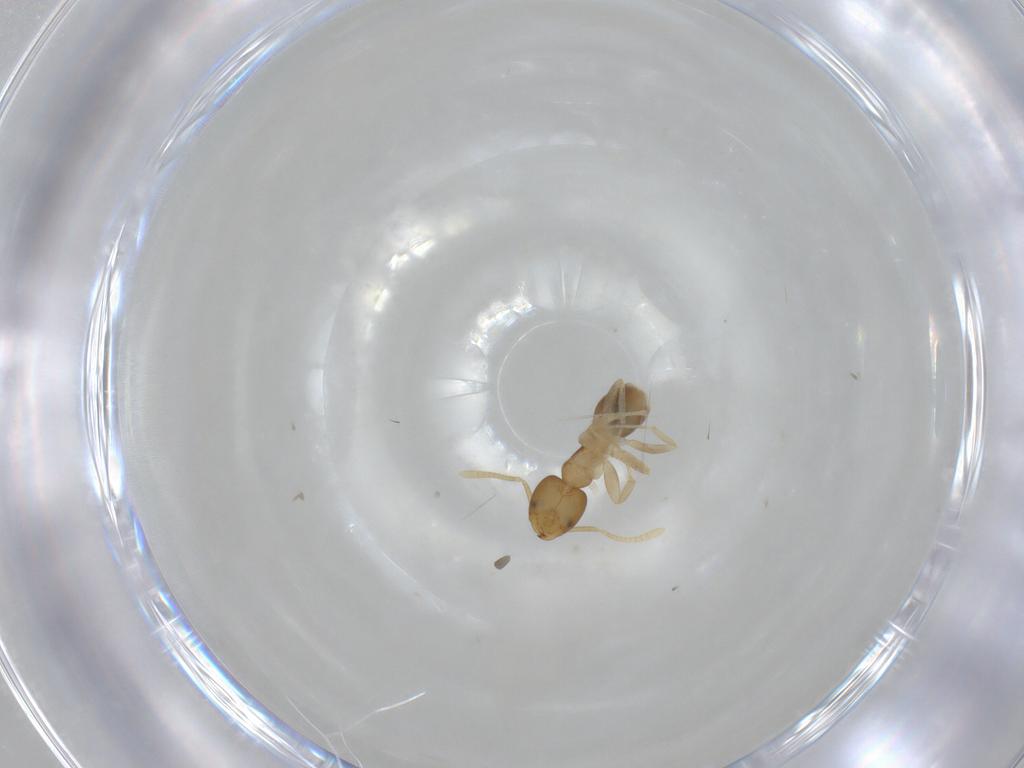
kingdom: Animalia
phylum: Arthropoda
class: Insecta
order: Hymenoptera
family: Formicidae
